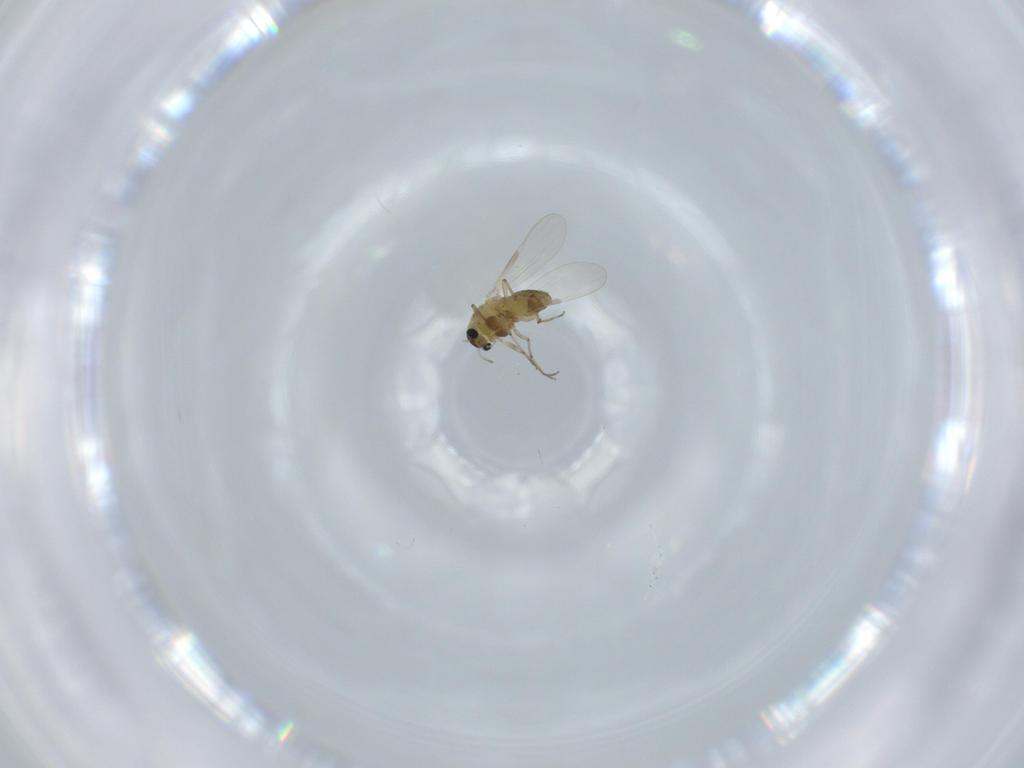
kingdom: Animalia
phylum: Arthropoda
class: Insecta
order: Diptera
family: Chironomidae
